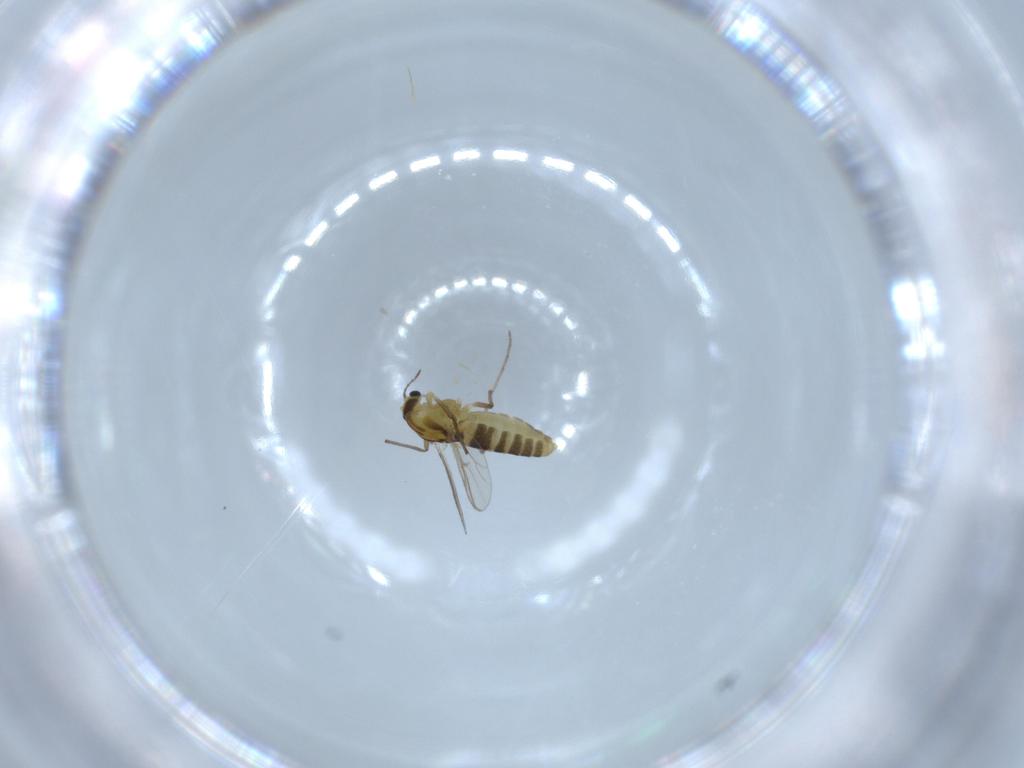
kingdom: Animalia
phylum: Arthropoda
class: Insecta
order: Diptera
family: Chironomidae
